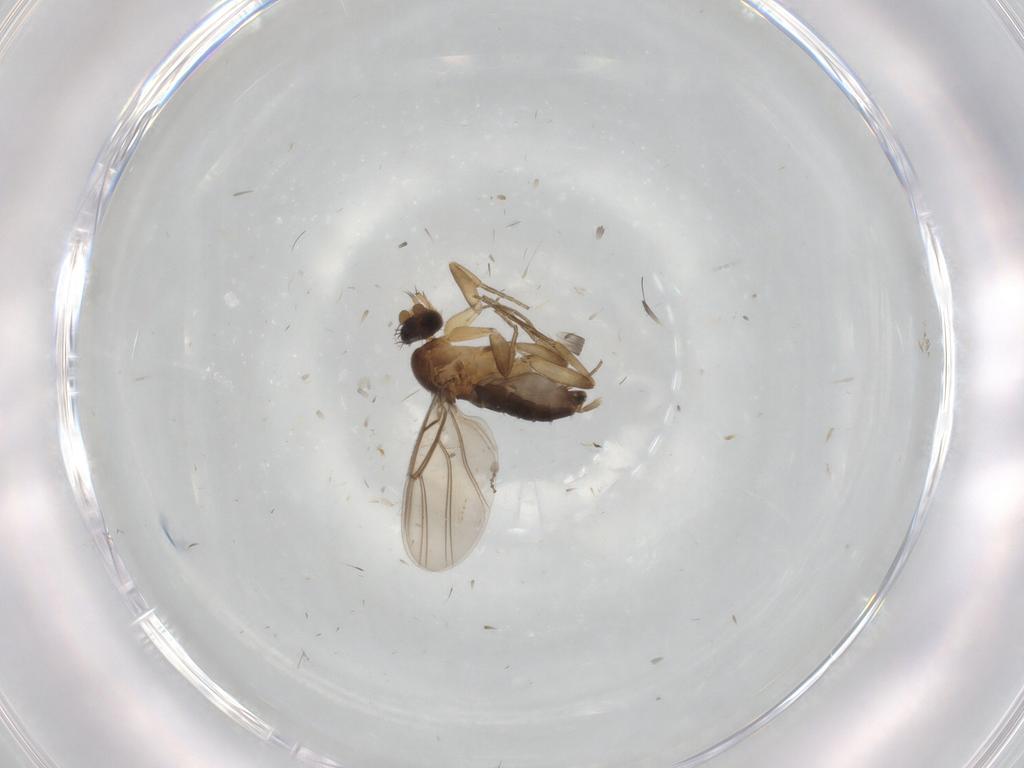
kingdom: Animalia
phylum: Arthropoda
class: Insecta
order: Diptera
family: Phoridae
